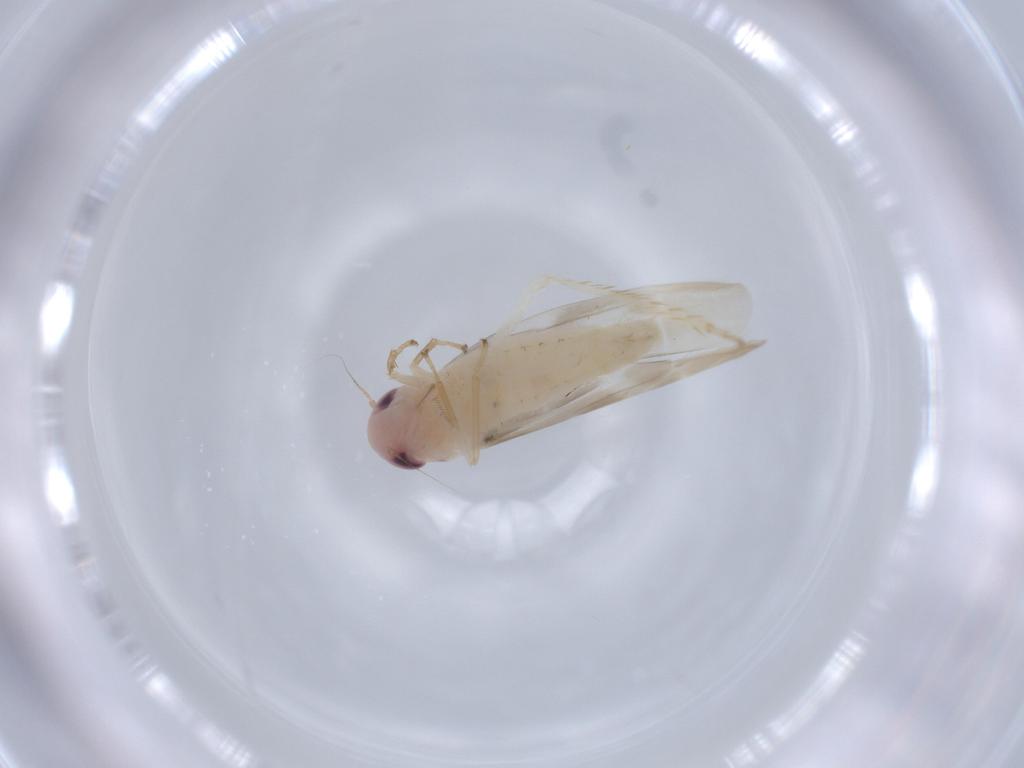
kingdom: Animalia
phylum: Arthropoda
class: Insecta
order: Hemiptera
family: Cicadellidae
